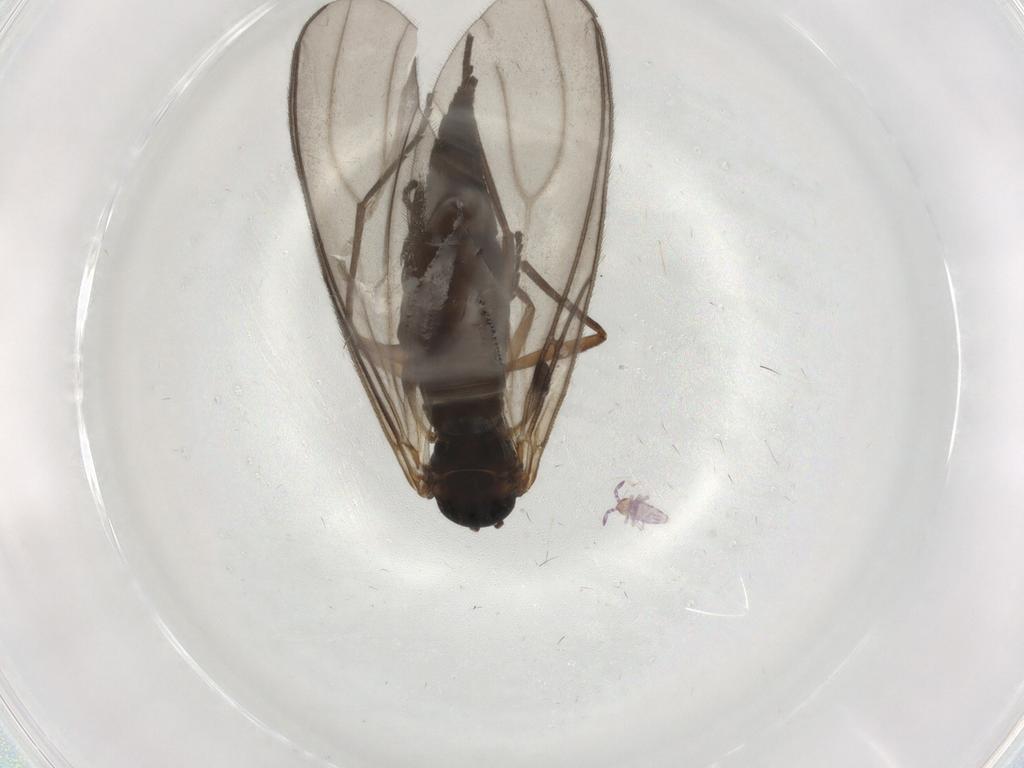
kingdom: Animalia
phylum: Arthropoda
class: Insecta
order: Diptera
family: Sciaridae
